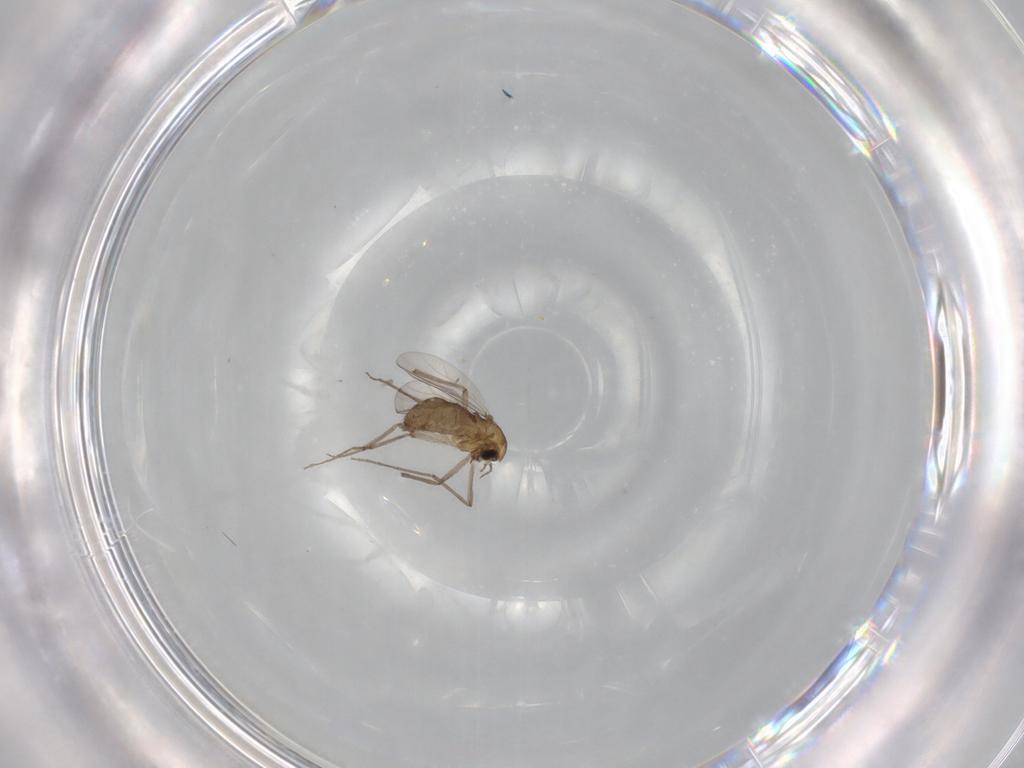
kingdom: Animalia
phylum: Arthropoda
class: Insecta
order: Diptera
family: Chironomidae
